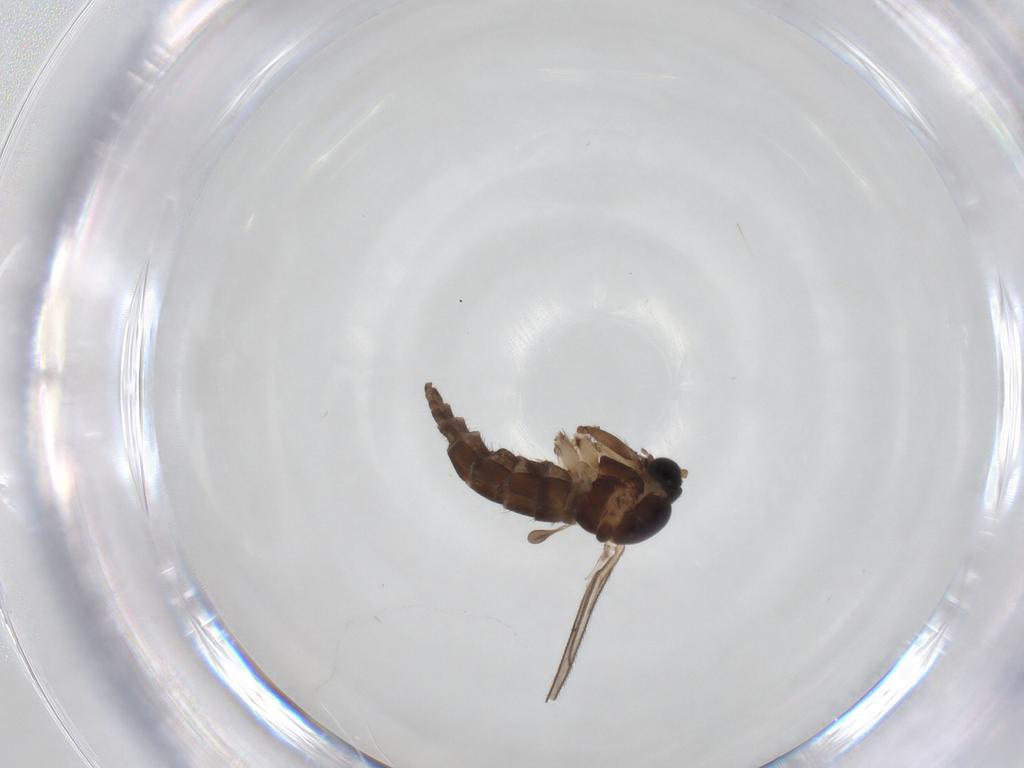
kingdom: Animalia
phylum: Arthropoda
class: Insecta
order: Diptera
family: Sciaridae
